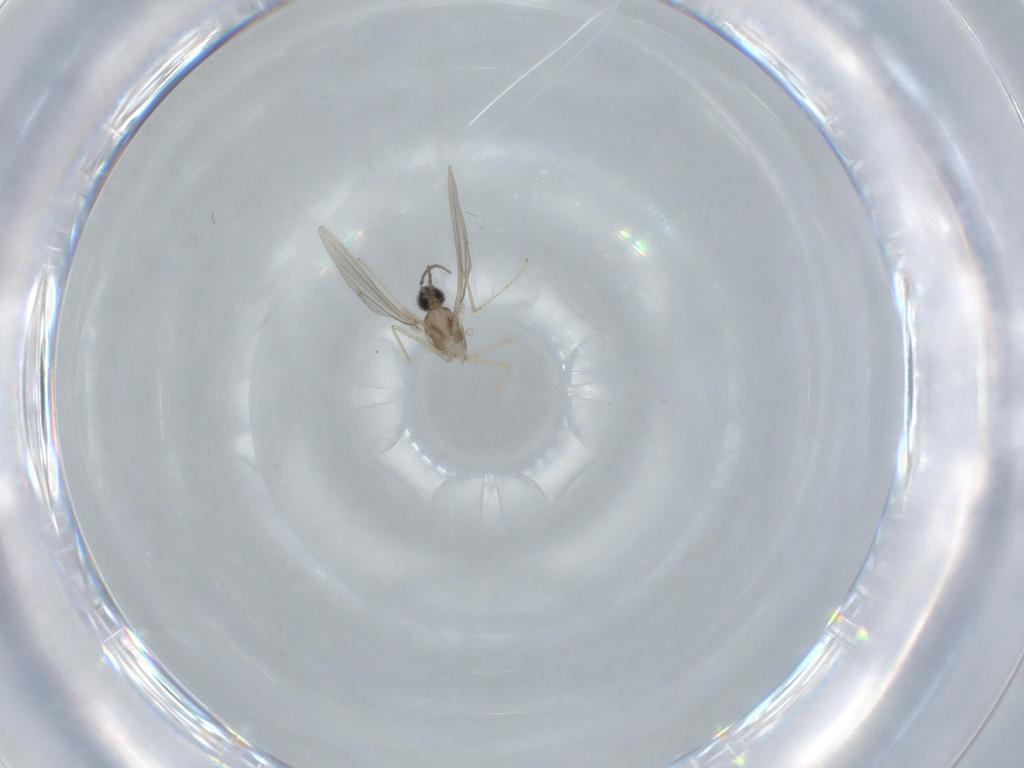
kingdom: Animalia
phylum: Arthropoda
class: Insecta
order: Diptera
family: Cecidomyiidae
